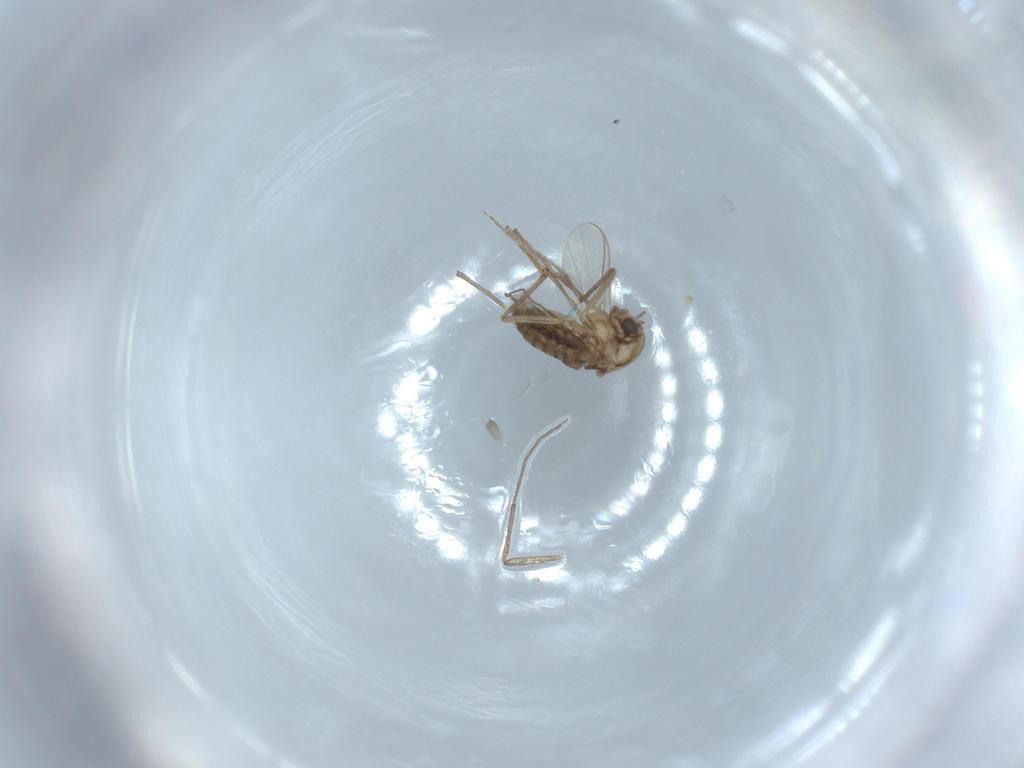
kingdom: Animalia
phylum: Arthropoda
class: Insecta
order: Diptera
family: Chironomidae
